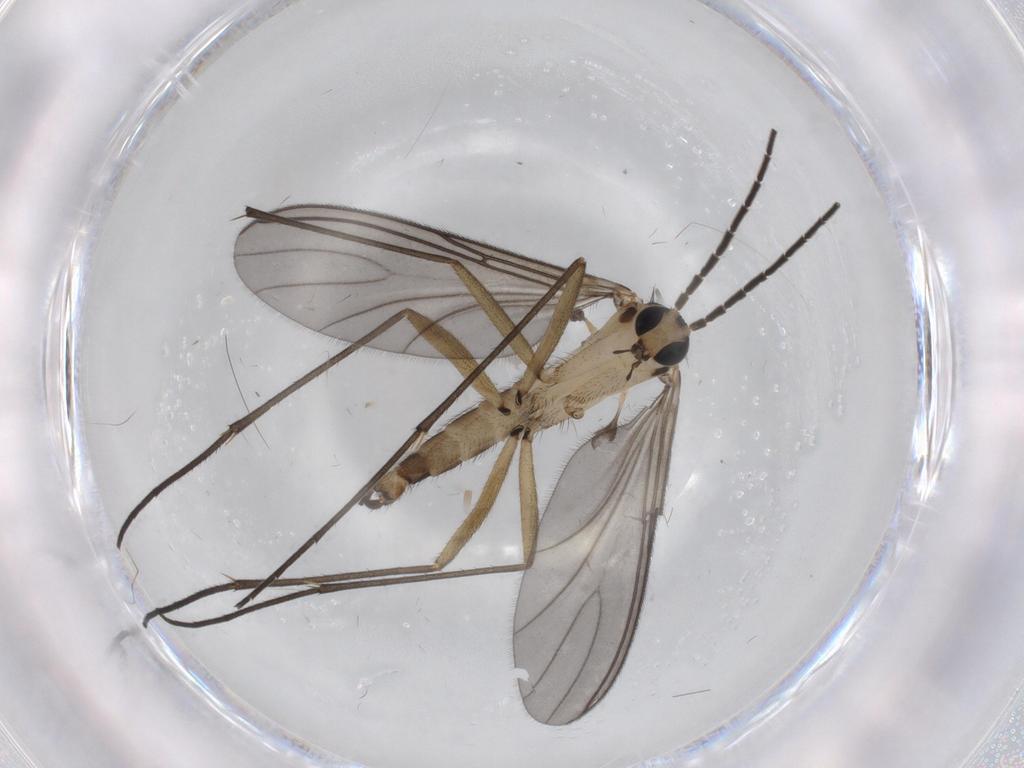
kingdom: Animalia
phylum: Arthropoda
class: Insecta
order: Diptera
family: Sciaridae
